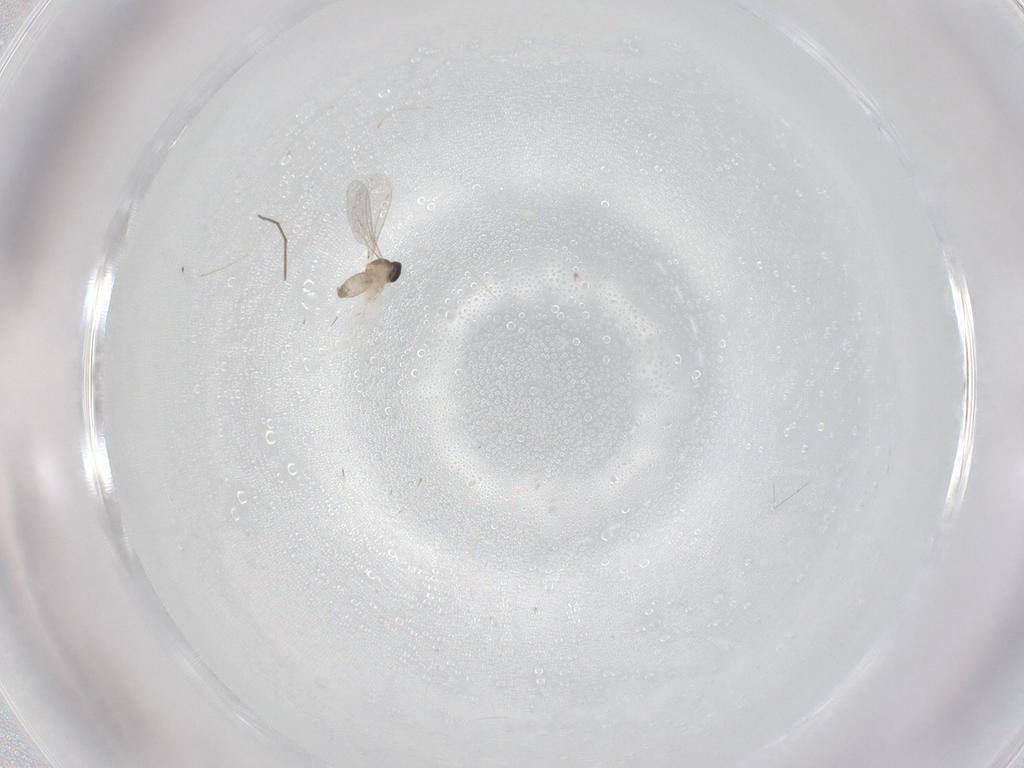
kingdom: Animalia
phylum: Arthropoda
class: Insecta
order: Diptera
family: Cecidomyiidae
